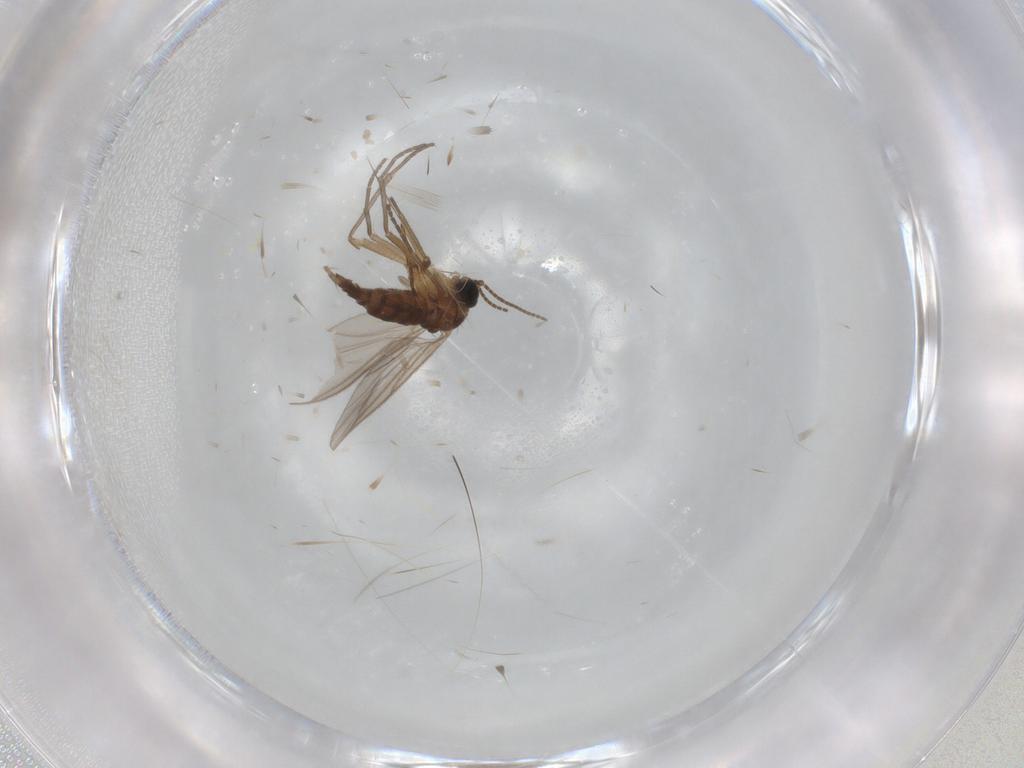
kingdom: Animalia
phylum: Arthropoda
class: Insecta
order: Diptera
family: Sciaridae
